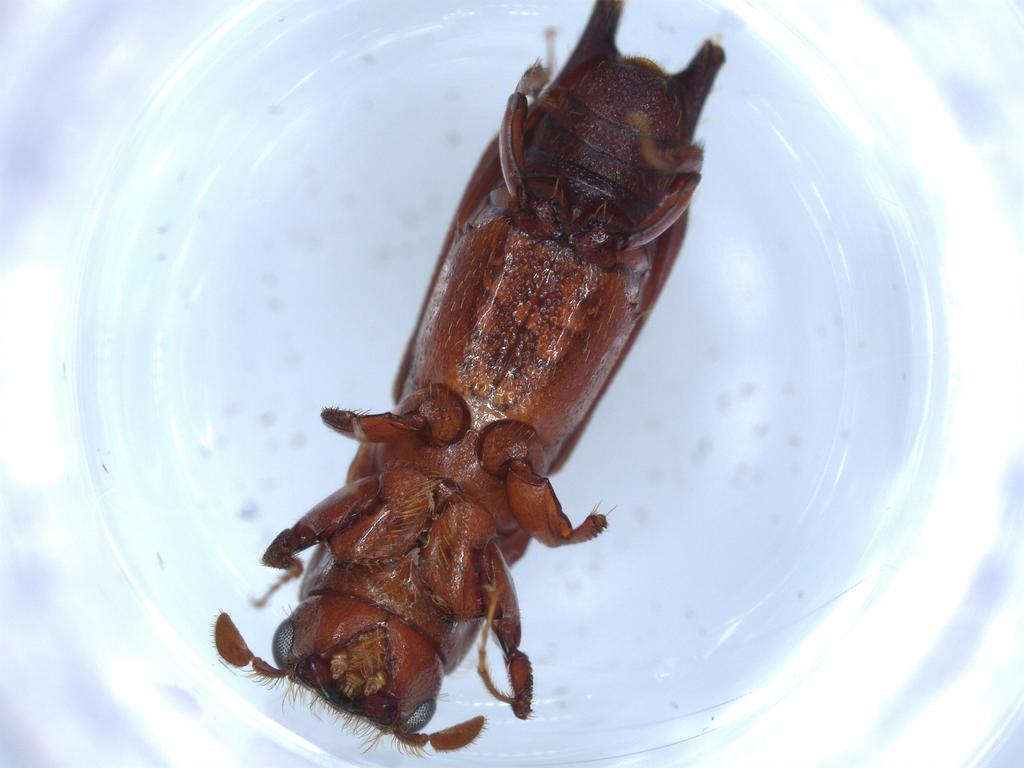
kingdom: Animalia
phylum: Arthropoda
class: Insecta
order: Coleoptera
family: Curculionidae
